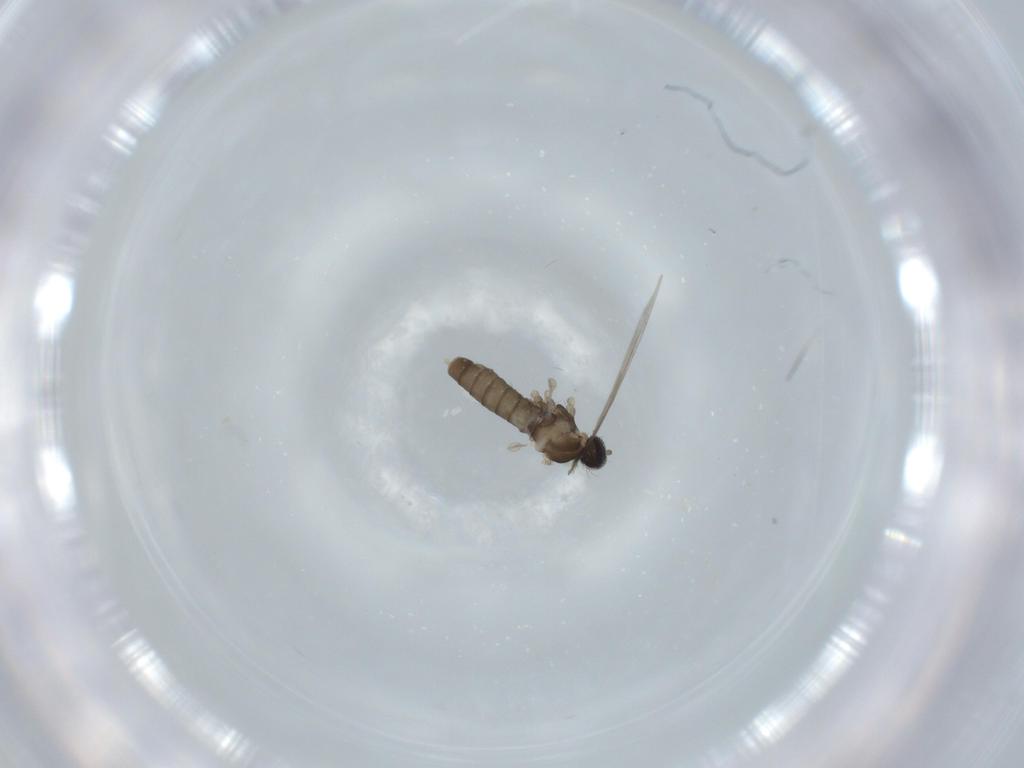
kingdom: Animalia
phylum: Arthropoda
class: Insecta
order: Diptera
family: Cecidomyiidae
